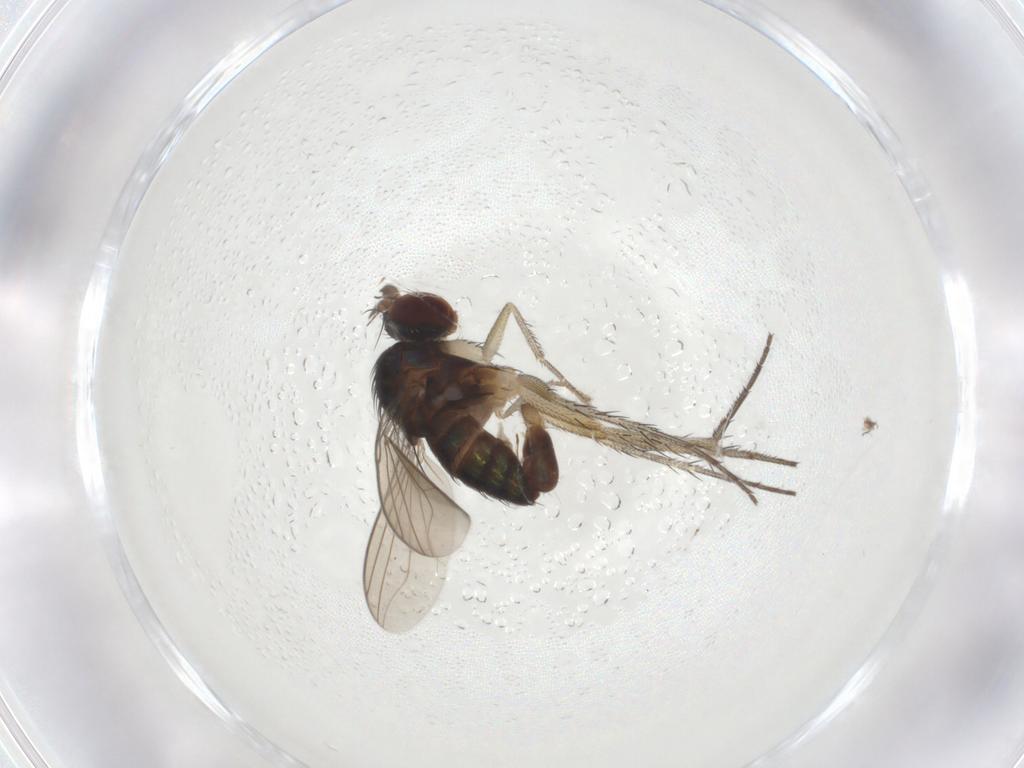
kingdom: Animalia
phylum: Arthropoda
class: Insecta
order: Diptera
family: Dolichopodidae
